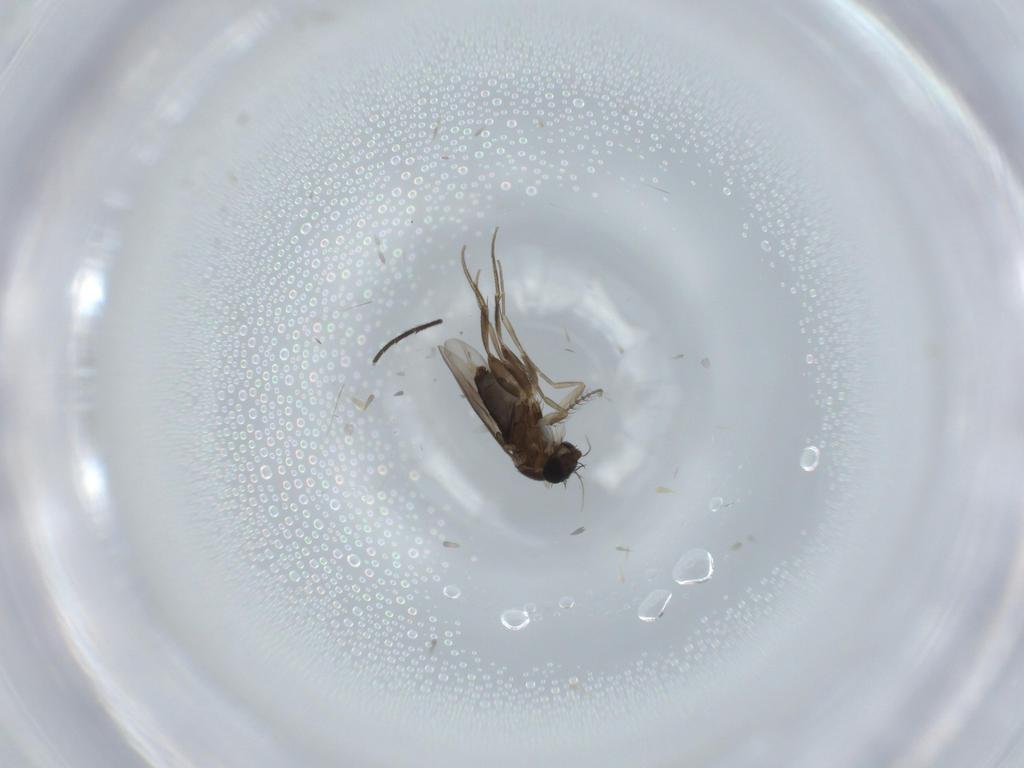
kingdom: Animalia
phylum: Arthropoda
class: Insecta
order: Diptera
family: Phoridae
